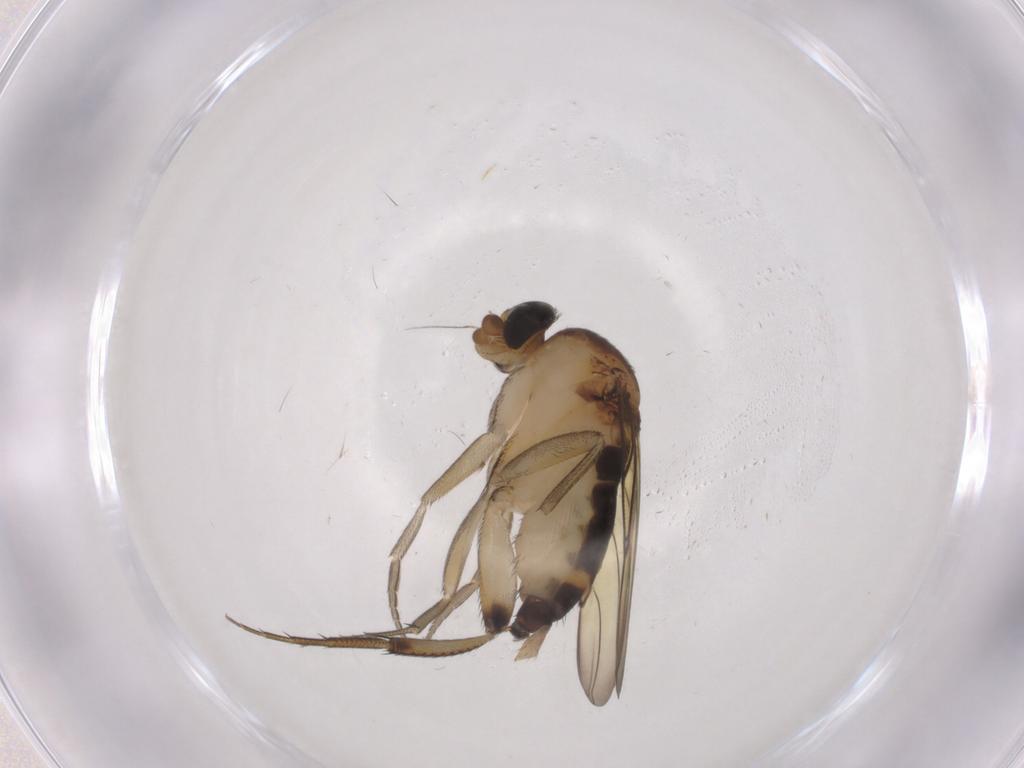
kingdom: Animalia
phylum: Arthropoda
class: Insecta
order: Diptera
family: Phoridae
